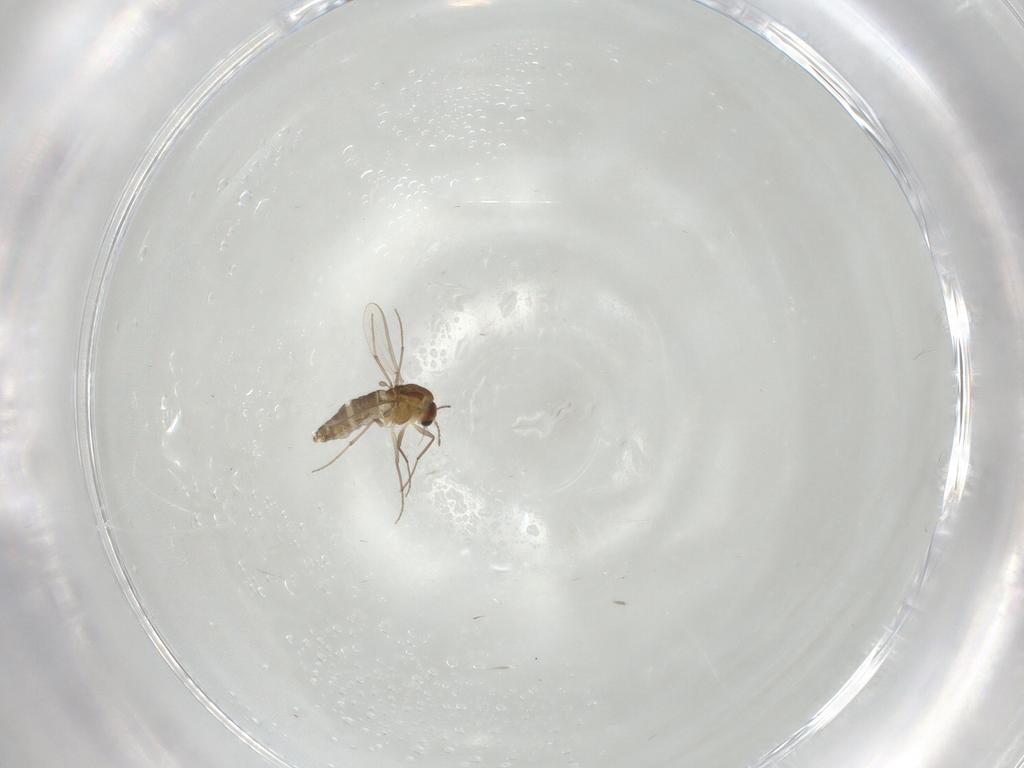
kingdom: Animalia
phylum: Arthropoda
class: Insecta
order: Diptera
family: Chironomidae
